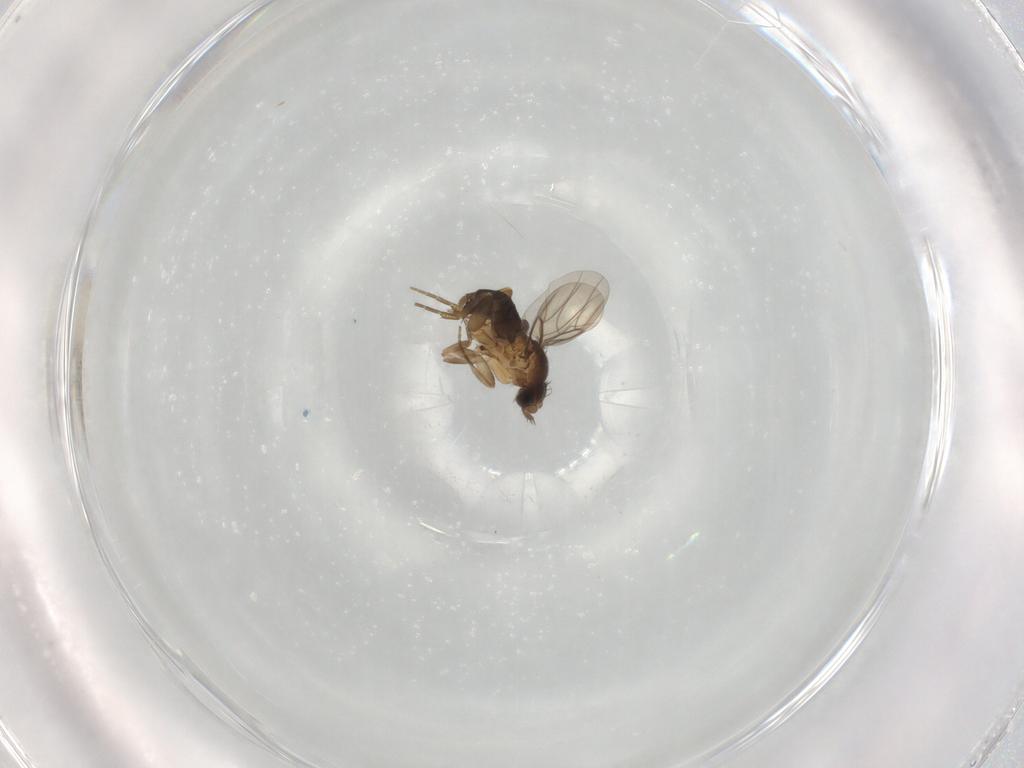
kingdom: Animalia
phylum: Arthropoda
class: Insecta
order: Diptera
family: Phoridae
